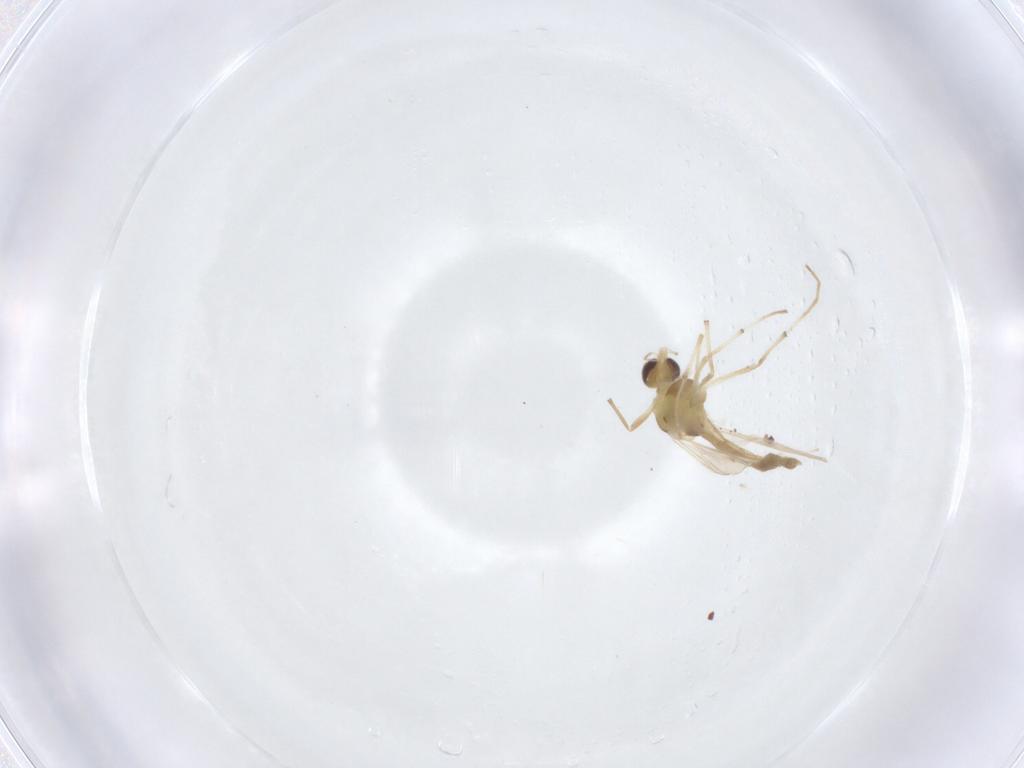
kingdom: Animalia
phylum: Arthropoda
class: Insecta
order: Diptera
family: Chironomidae
